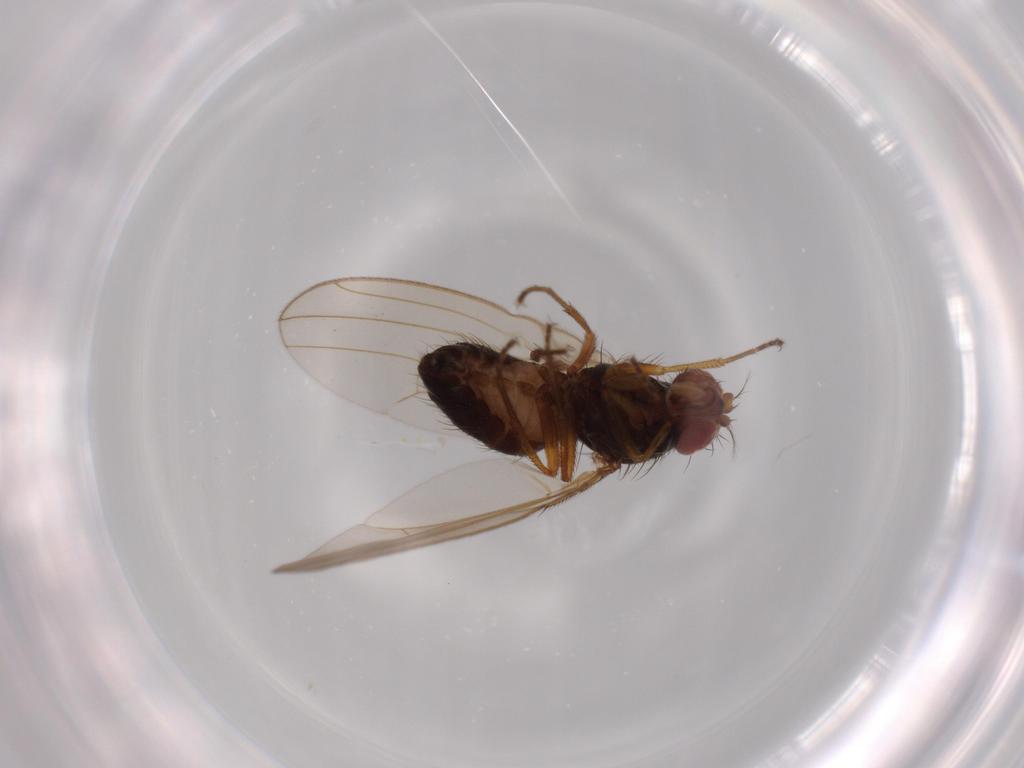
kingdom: Animalia
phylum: Arthropoda
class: Insecta
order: Diptera
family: Drosophilidae
